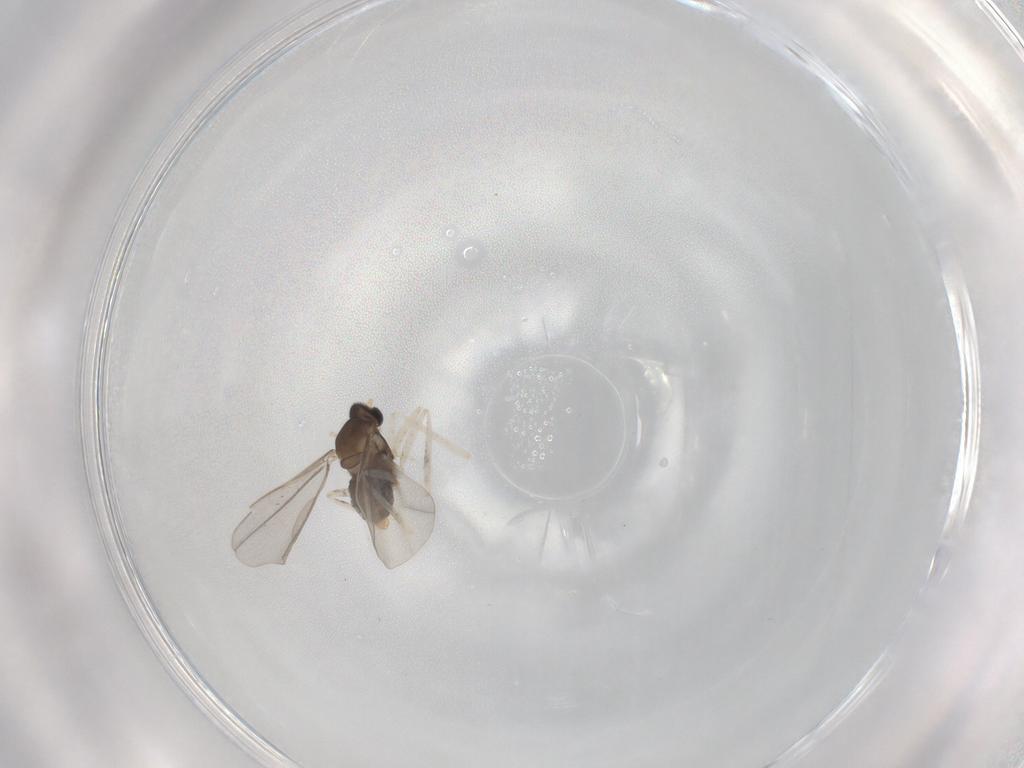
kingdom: Animalia
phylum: Arthropoda
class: Insecta
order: Diptera
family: Cecidomyiidae
